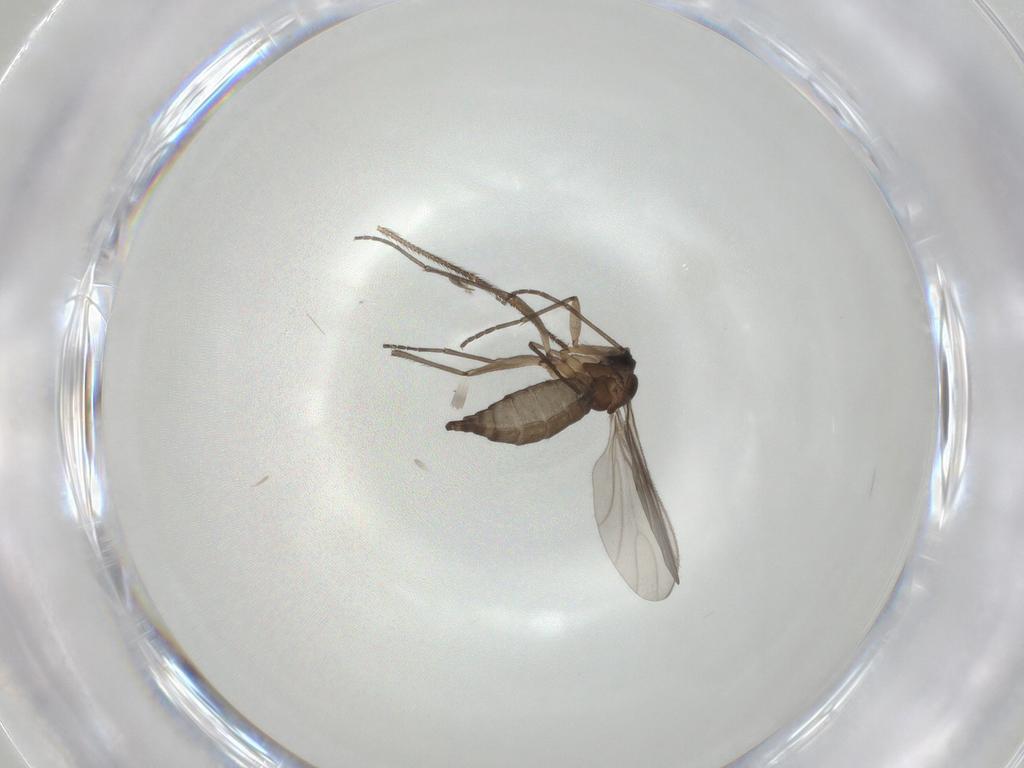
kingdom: Animalia
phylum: Arthropoda
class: Insecta
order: Diptera
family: Keroplatidae
